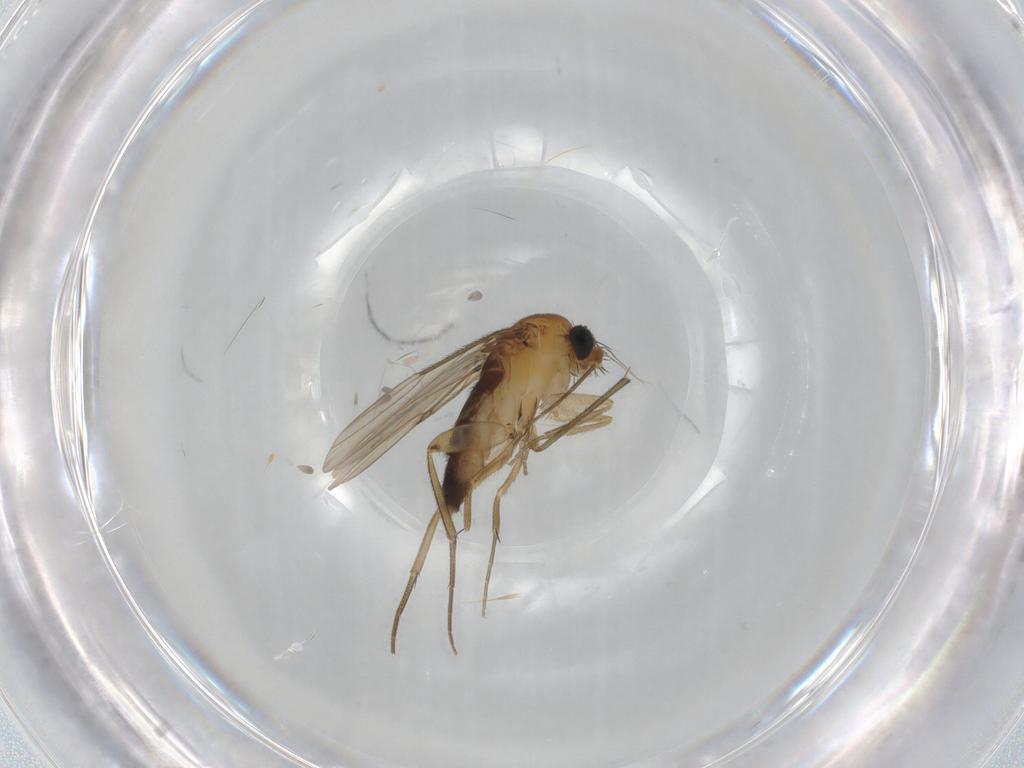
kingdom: Animalia
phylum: Arthropoda
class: Insecta
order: Diptera
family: Phoridae
